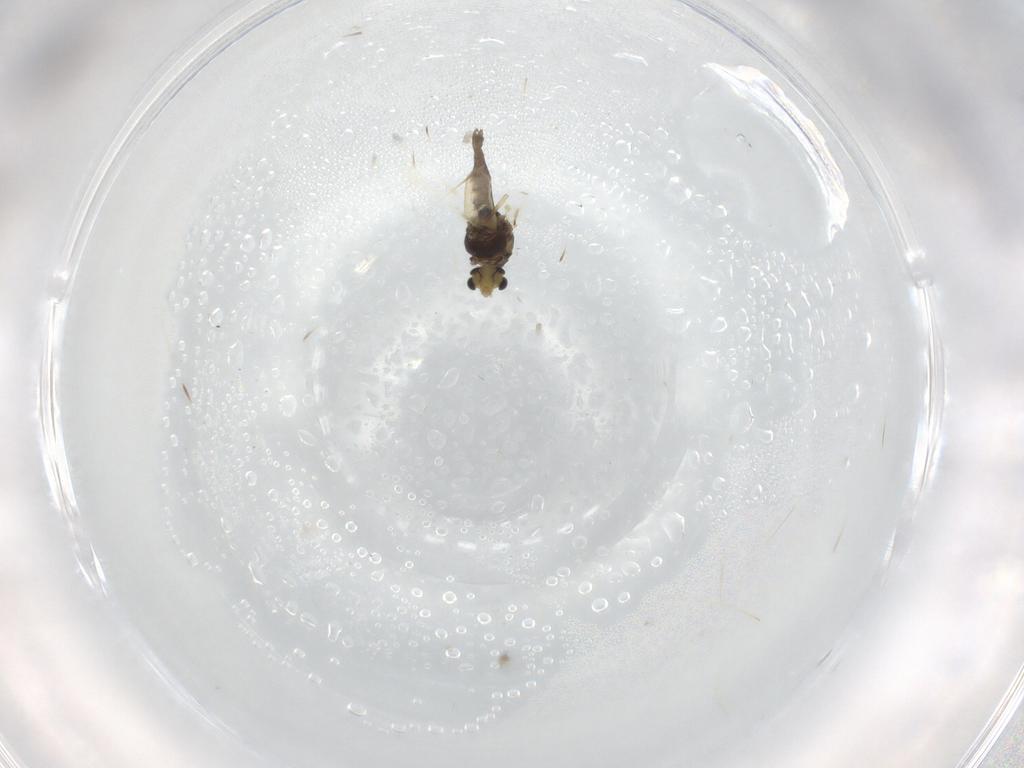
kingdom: Animalia
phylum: Arthropoda
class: Insecta
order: Diptera
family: Chironomidae
